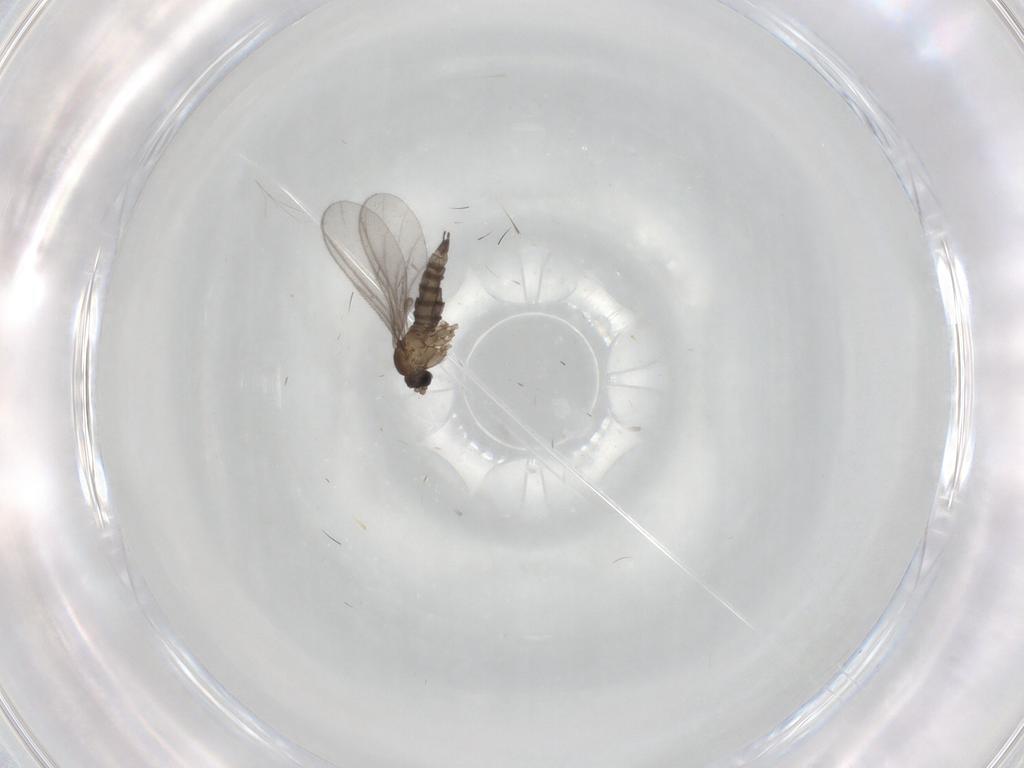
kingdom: Animalia
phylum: Arthropoda
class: Insecta
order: Diptera
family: Sciaridae
